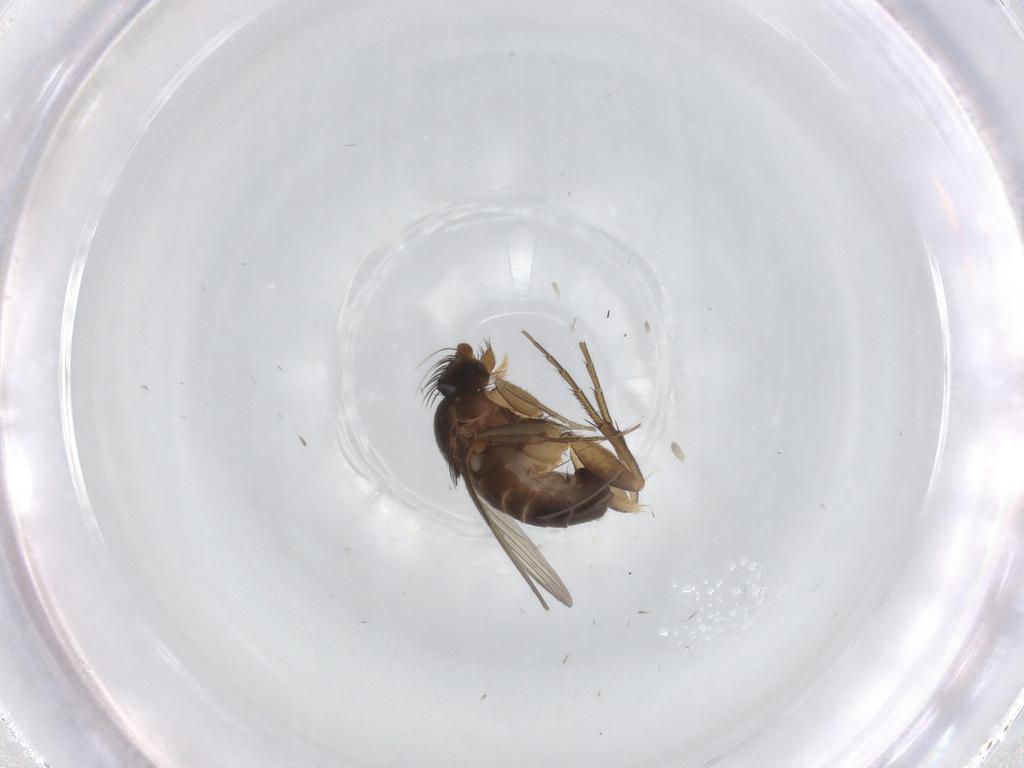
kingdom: Animalia
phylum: Arthropoda
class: Insecta
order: Diptera
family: Phoridae
